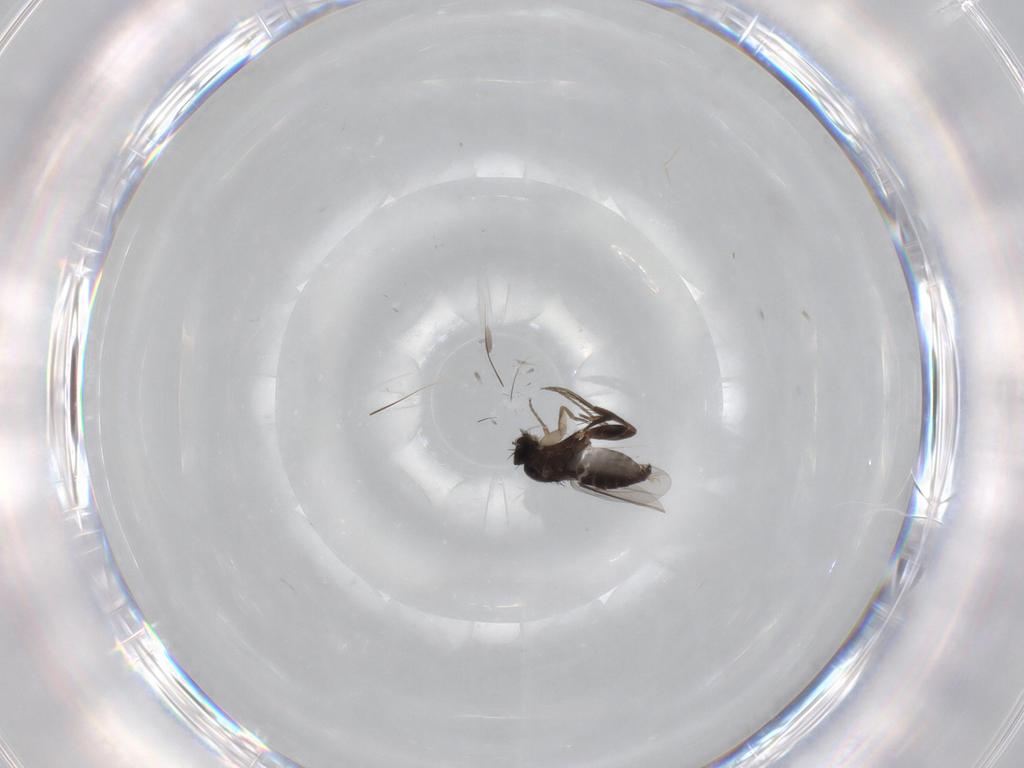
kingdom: Animalia
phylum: Arthropoda
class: Insecta
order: Diptera
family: Phoridae
